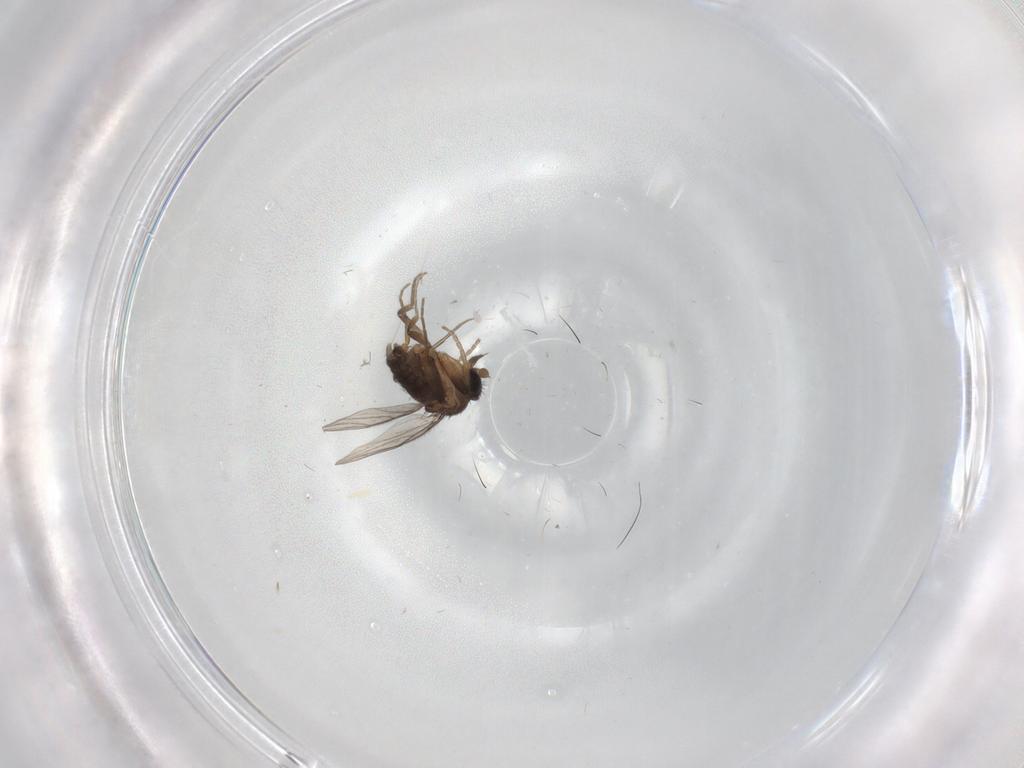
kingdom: Animalia
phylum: Arthropoda
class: Insecta
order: Diptera
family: Phoridae
